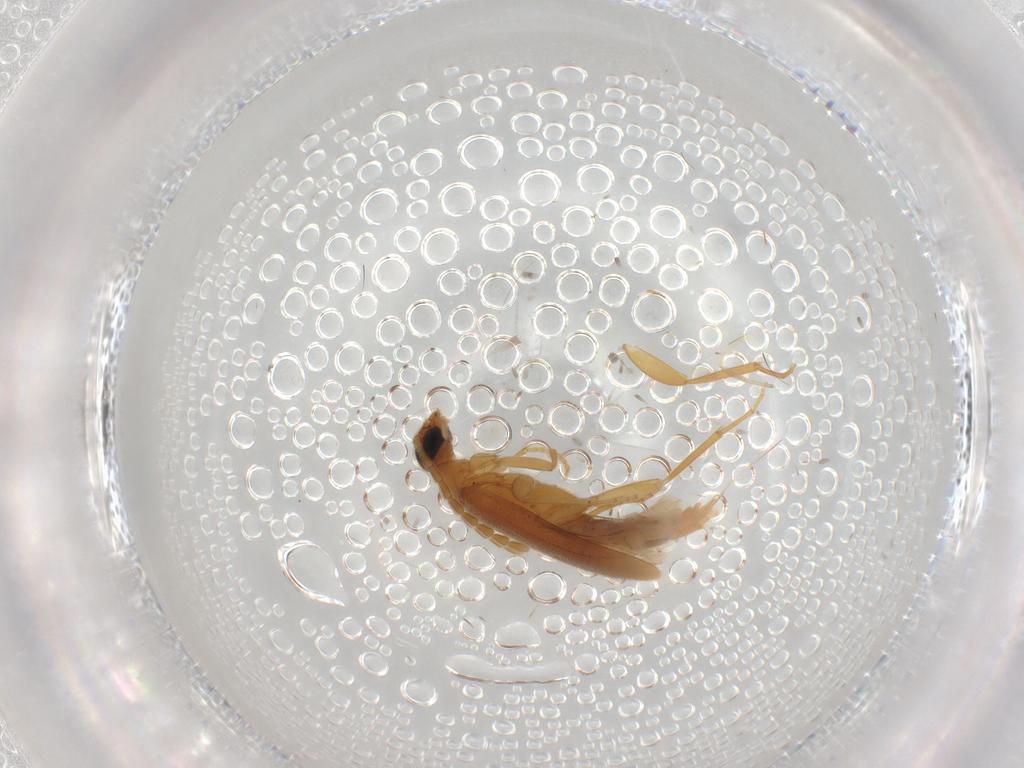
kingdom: Animalia
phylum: Arthropoda
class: Insecta
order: Coleoptera
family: Scraptiidae
